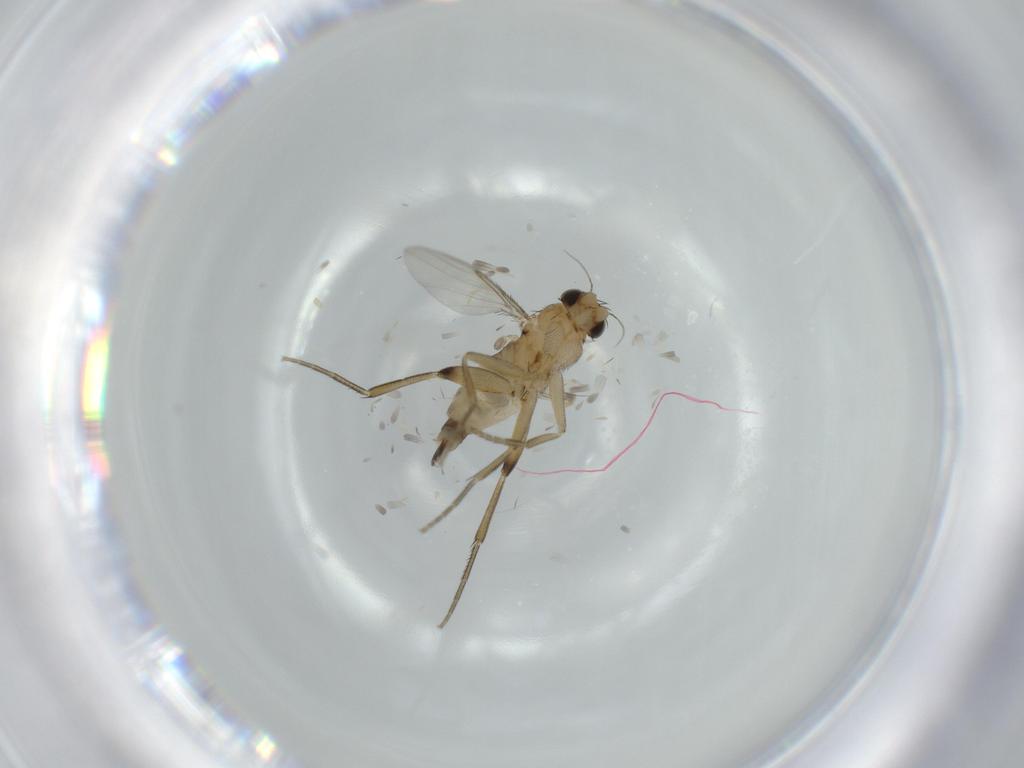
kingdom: Animalia
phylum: Arthropoda
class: Insecta
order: Diptera
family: Phoridae
